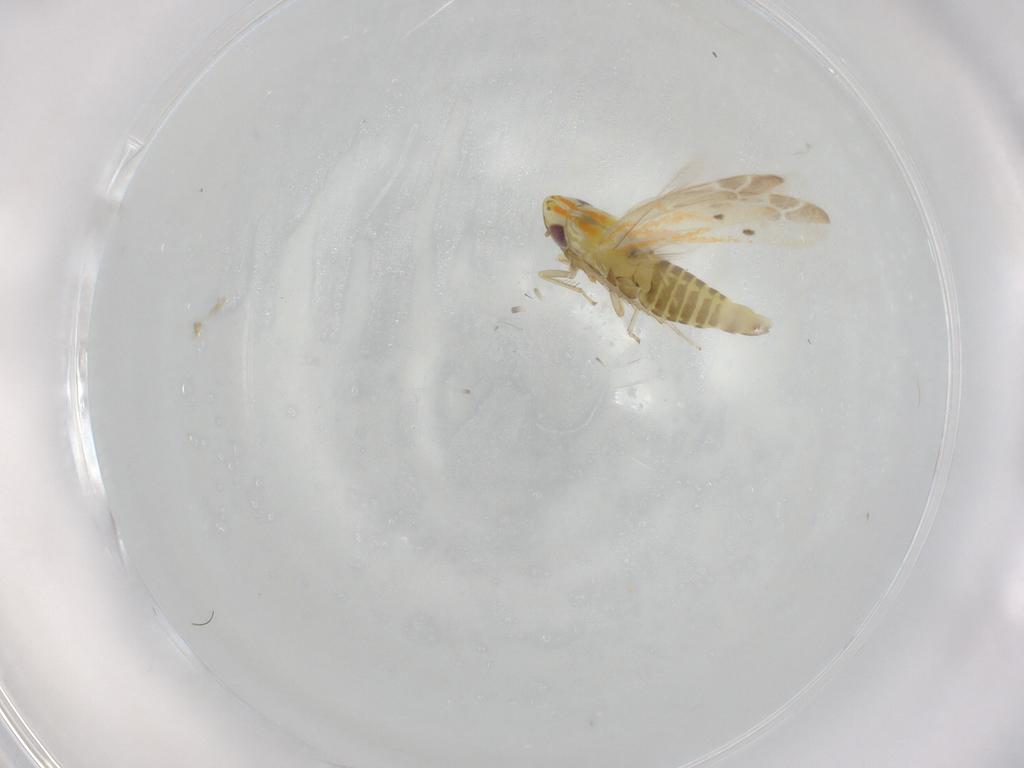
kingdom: Animalia
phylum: Arthropoda
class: Insecta
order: Hemiptera
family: Cicadellidae
